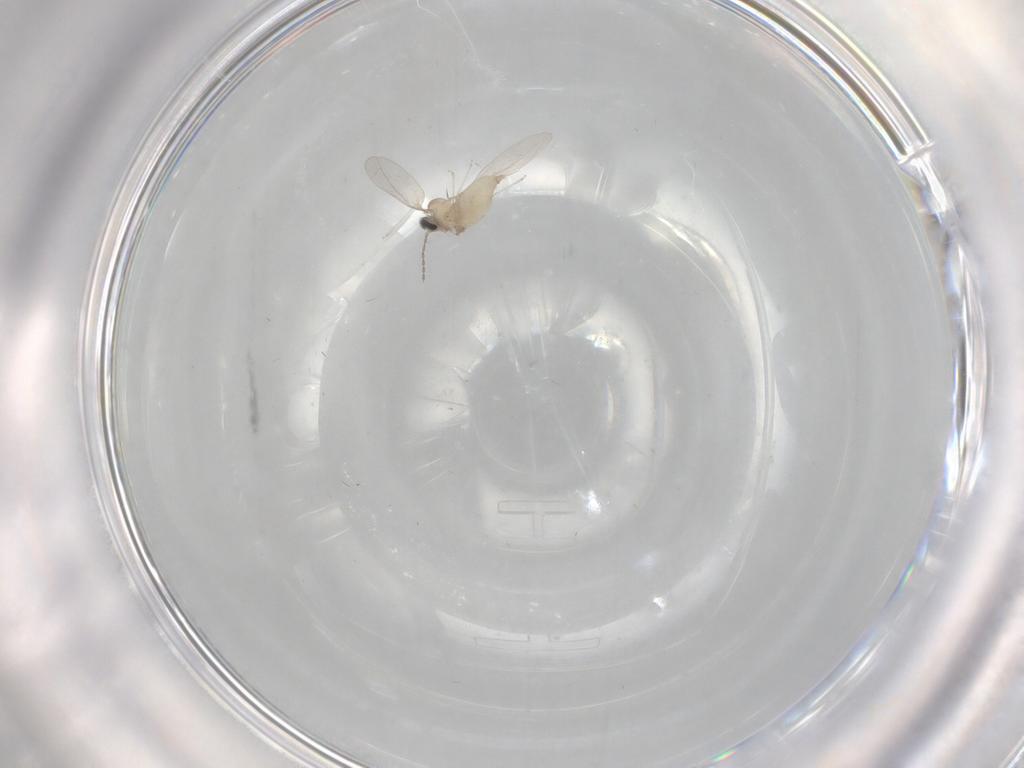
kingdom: Animalia
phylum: Arthropoda
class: Insecta
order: Diptera
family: Cecidomyiidae
